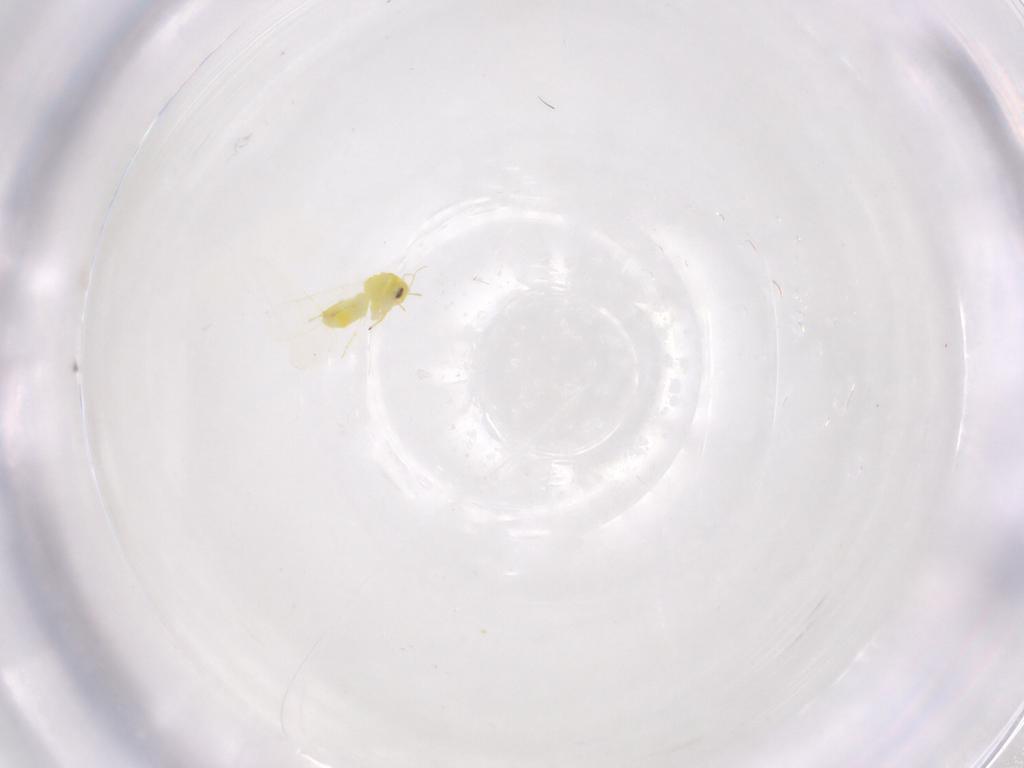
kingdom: Animalia
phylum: Arthropoda
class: Insecta
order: Hemiptera
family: Aleyrodidae
